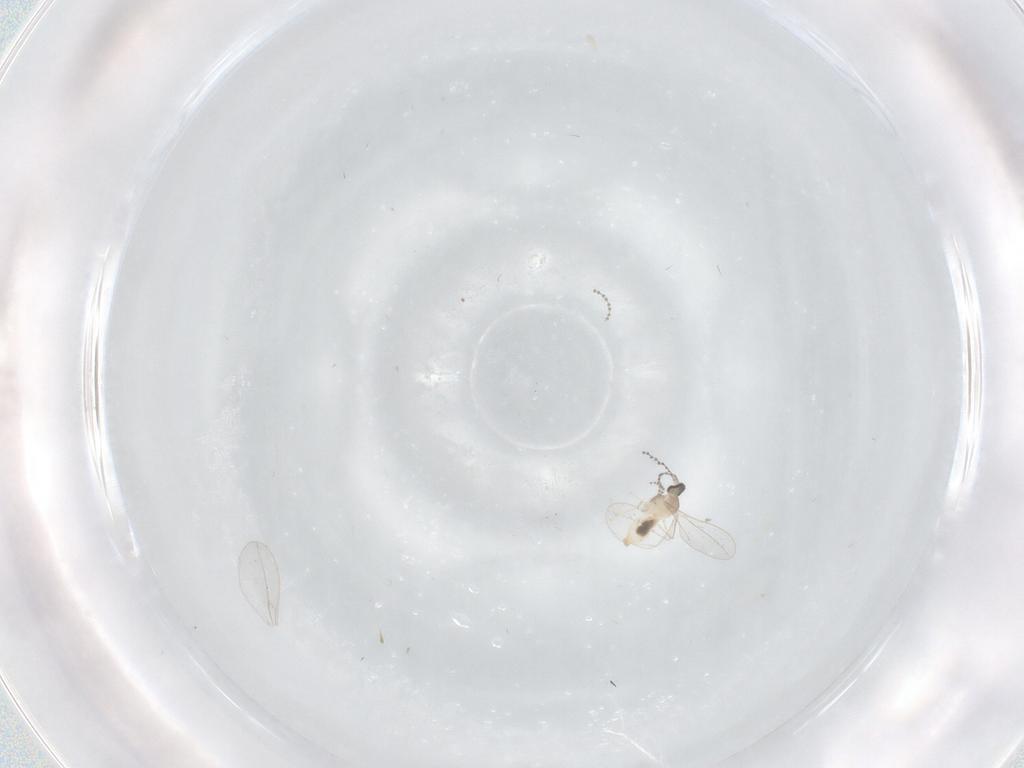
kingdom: Animalia
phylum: Arthropoda
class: Insecta
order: Diptera
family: Cecidomyiidae
